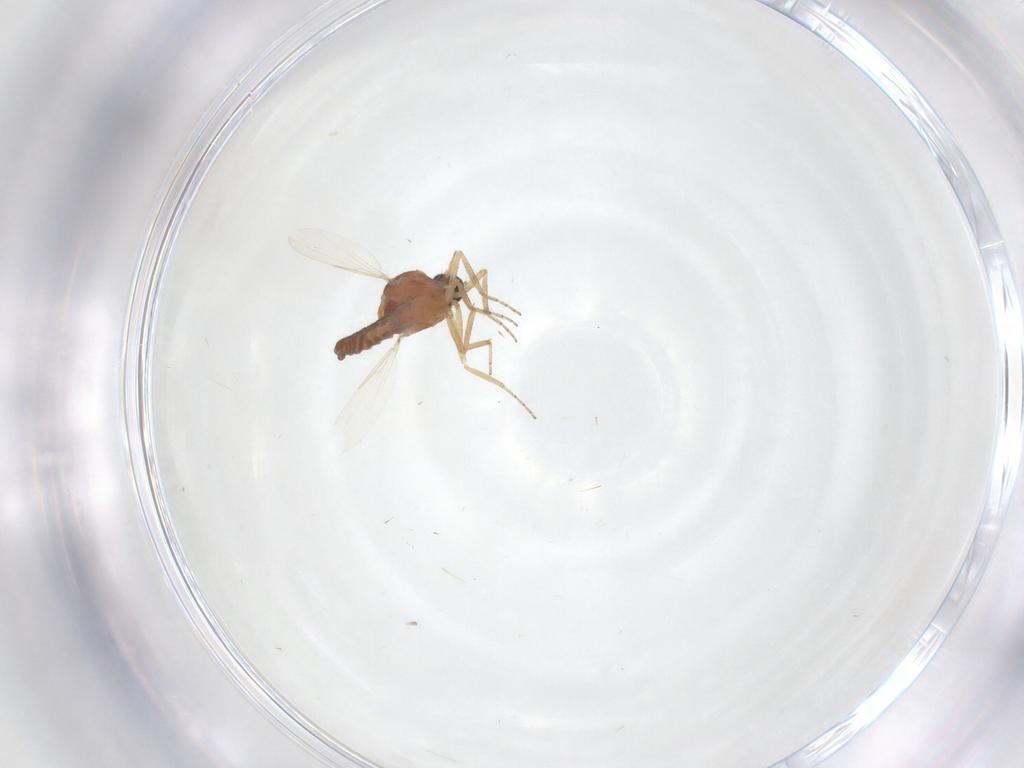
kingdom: Animalia
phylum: Arthropoda
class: Insecta
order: Diptera
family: Ceratopogonidae
